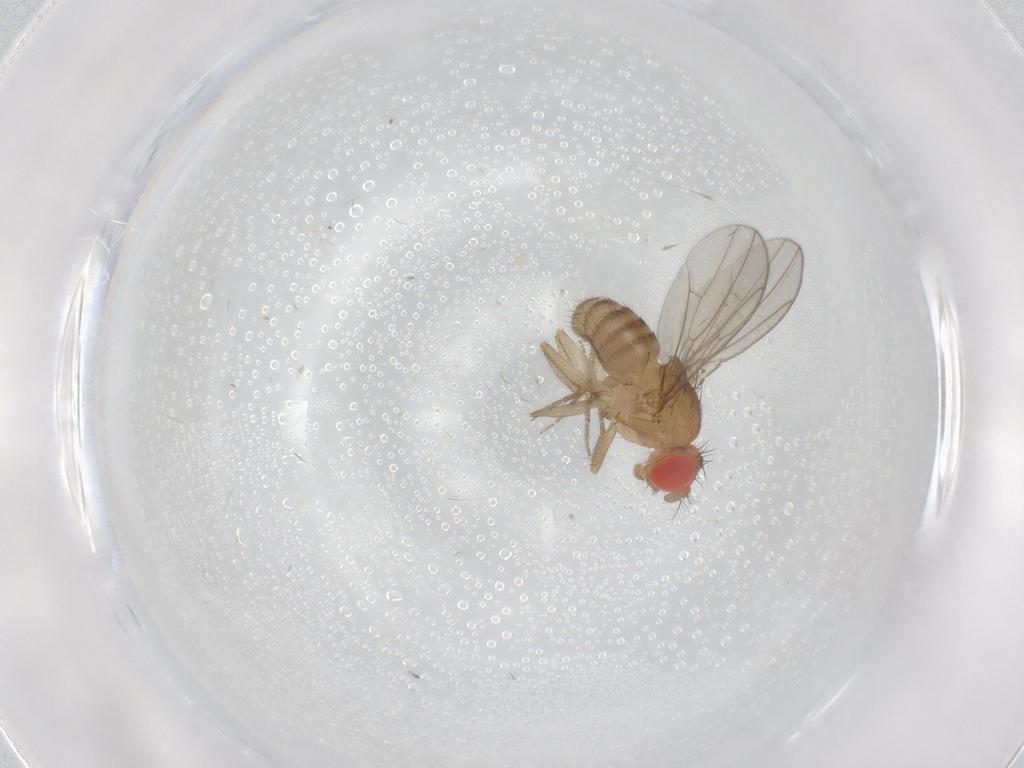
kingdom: Animalia
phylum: Arthropoda
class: Insecta
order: Diptera
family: Drosophilidae
